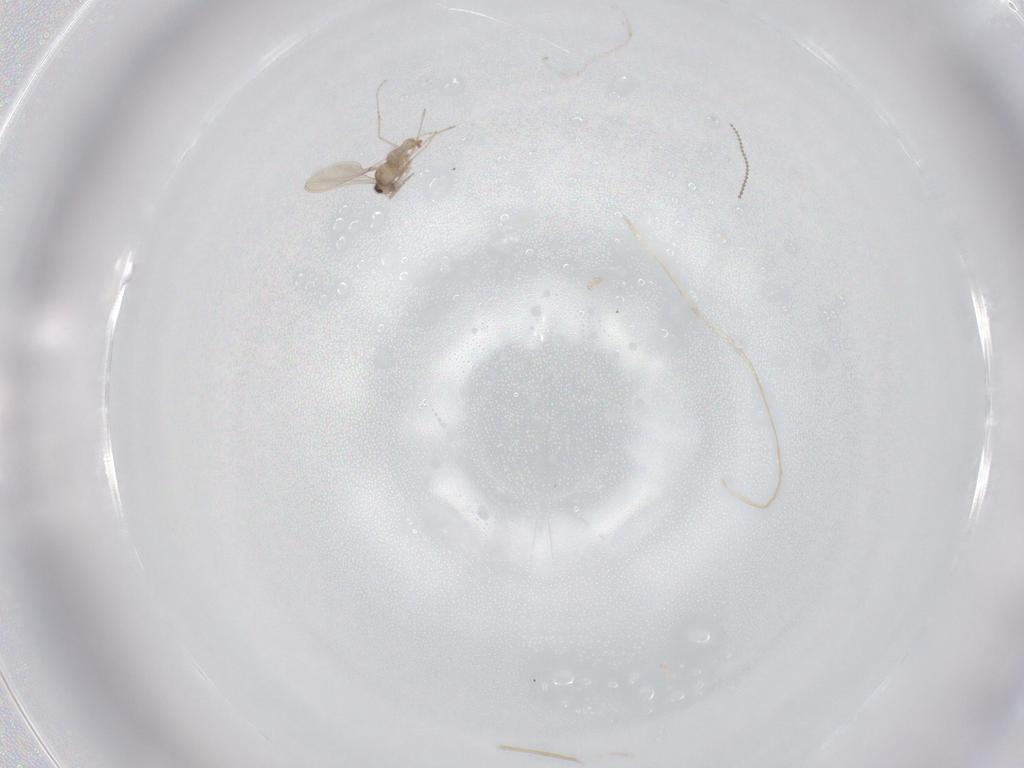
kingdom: Animalia
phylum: Arthropoda
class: Insecta
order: Diptera
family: Cecidomyiidae
